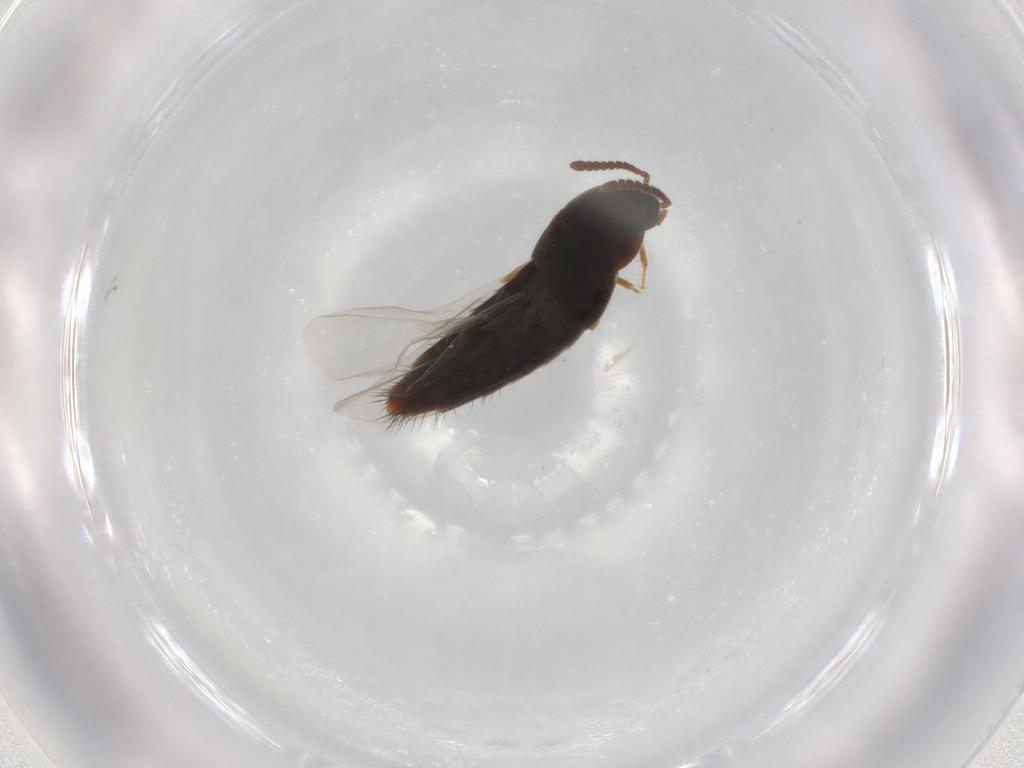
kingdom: Animalia
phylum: Arthropoda
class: Insecta
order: Coleoptera
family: Staphylinidae
